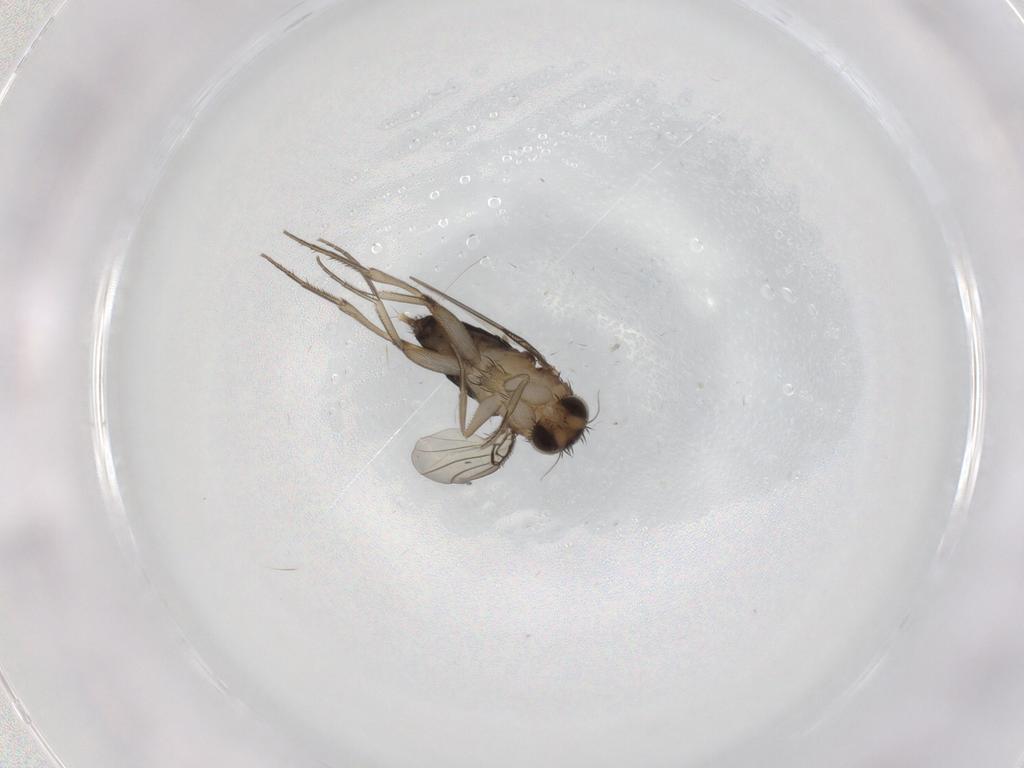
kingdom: Animalia
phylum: Arthropoda
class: Insecta
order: Diptera
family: Phoridae
